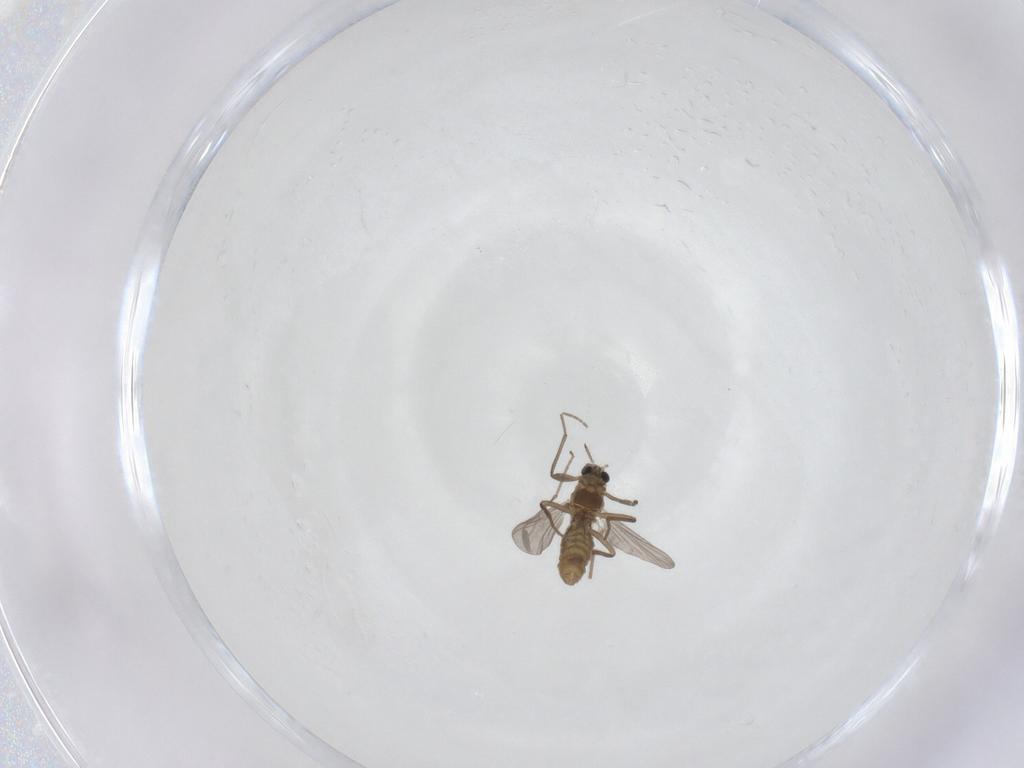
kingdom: Animalia
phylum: Arthropoda
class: Insecta
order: Diptera
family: Chironomidae
